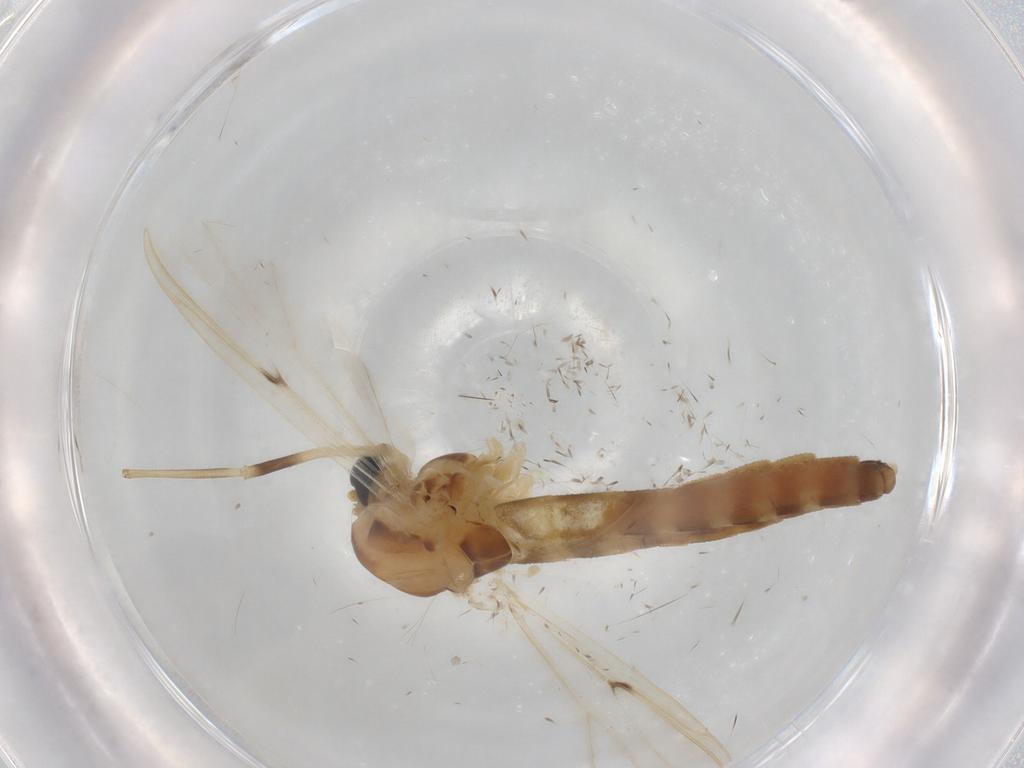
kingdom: Animalia
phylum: Arthropoda
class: Insecta
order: Diptera
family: Chironomidae
